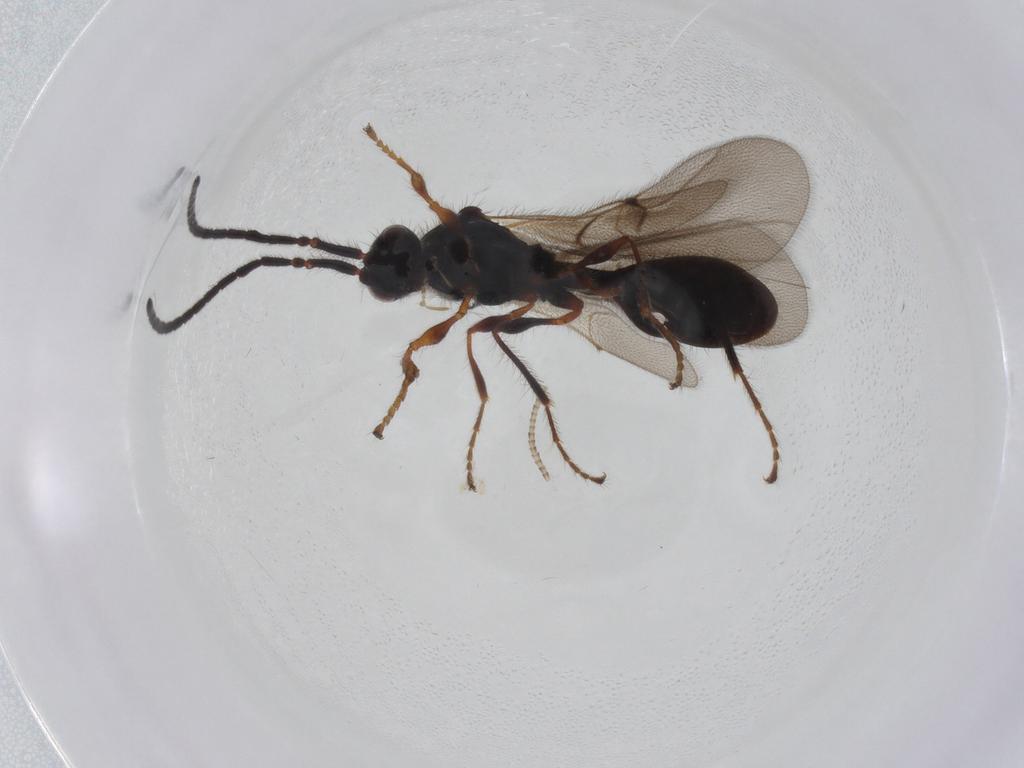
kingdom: Animalia
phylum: Arthropoda
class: Insecta
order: Hymenoptera
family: Diapriidae
